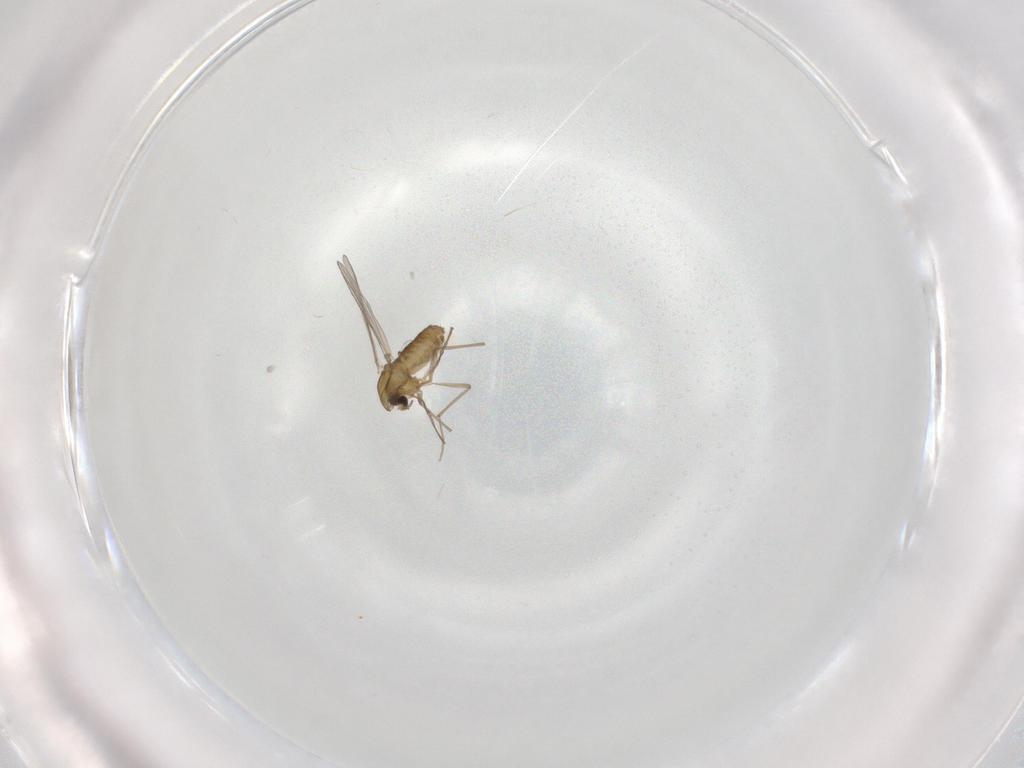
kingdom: Animalia
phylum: Arthropoda
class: Insecta
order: Diptera
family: Chironomidae
